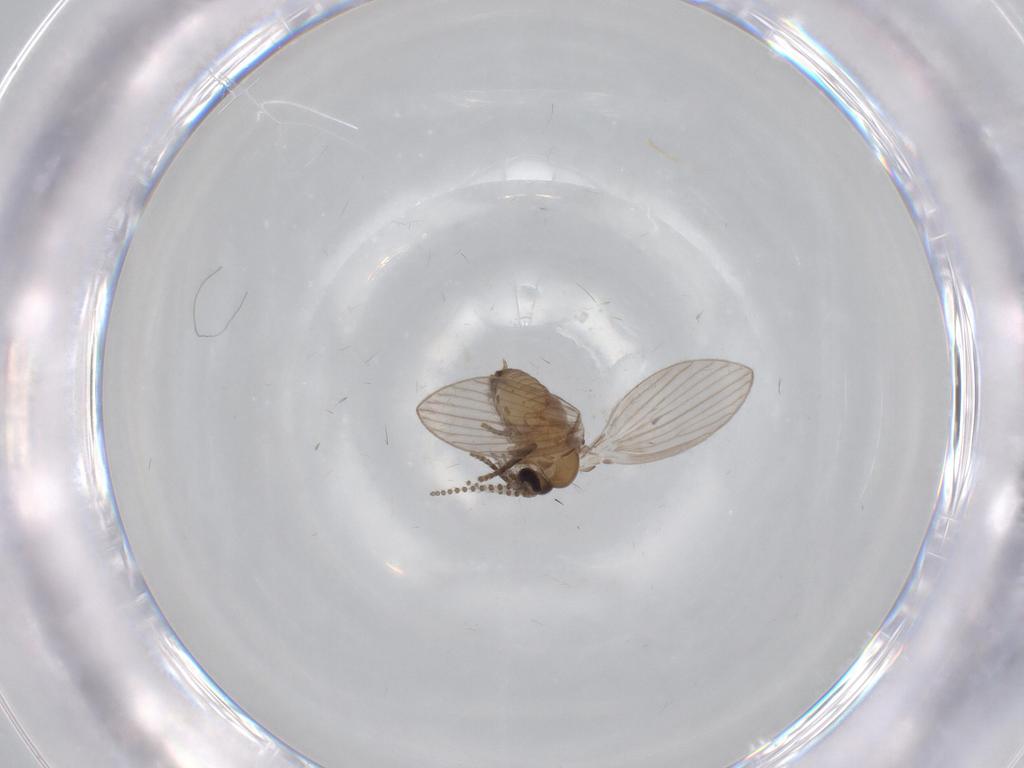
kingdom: Animalia
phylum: Arthropoda
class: Insecta
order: Diptera
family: Psychodidae
